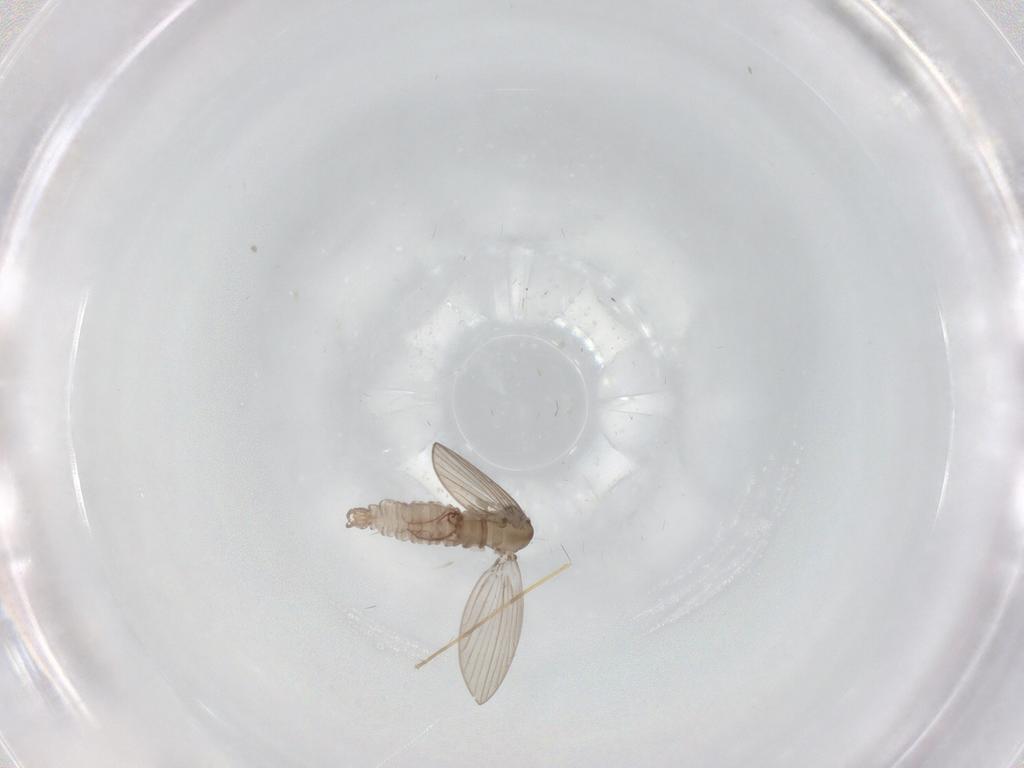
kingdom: Animalia
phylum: Arthropoda
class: Insecta
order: Diptera
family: Psychodidae
